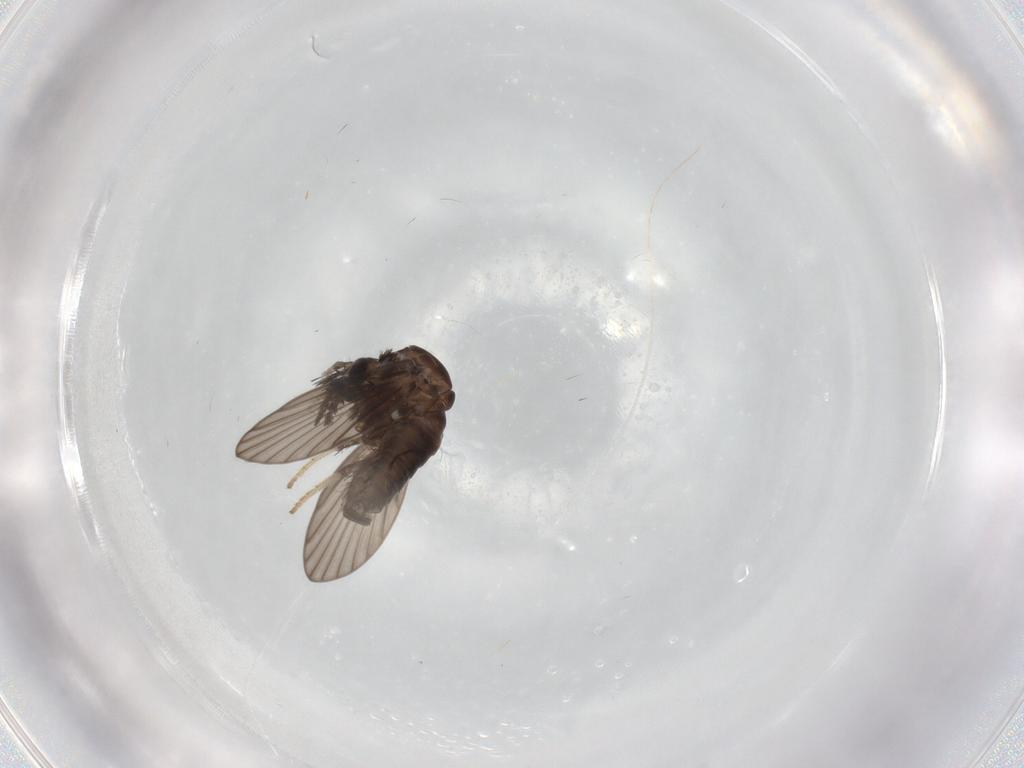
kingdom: Animalia
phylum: Arthropoda
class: Insecta
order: Diptera
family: Psychodidae
